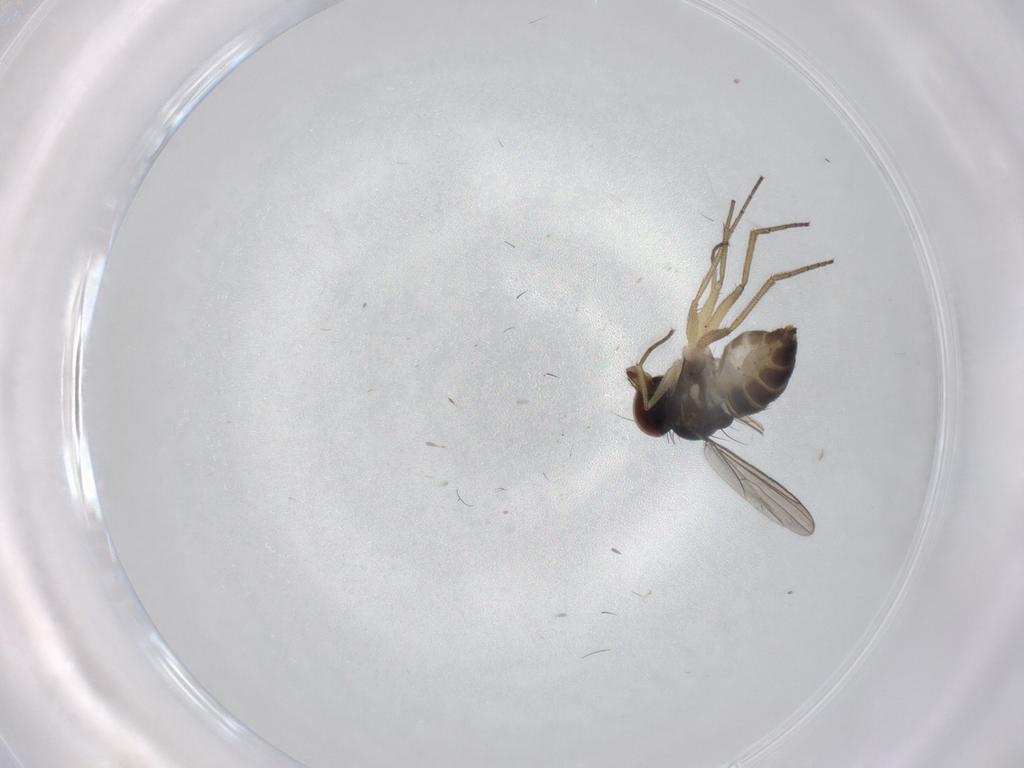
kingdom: Animalia
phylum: Arthropoda
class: Insecta
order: Diptera
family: Dolichopodidae
